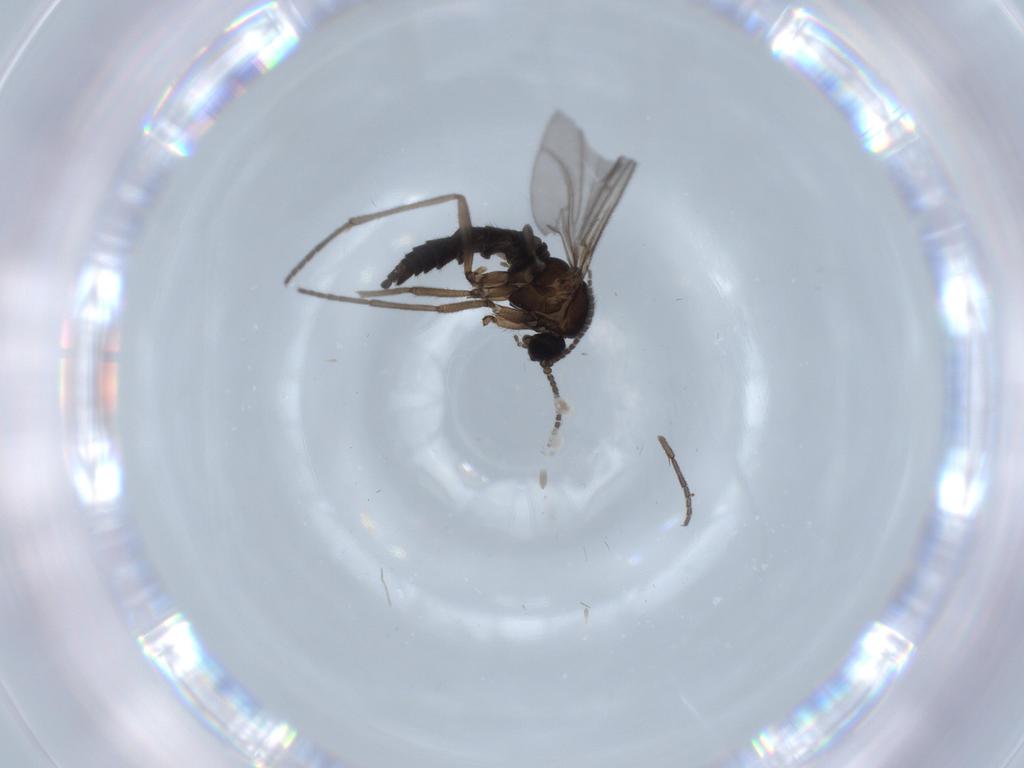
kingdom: Animalia
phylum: Arthropoda
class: Insecta
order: Diptera
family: Sciaridae
